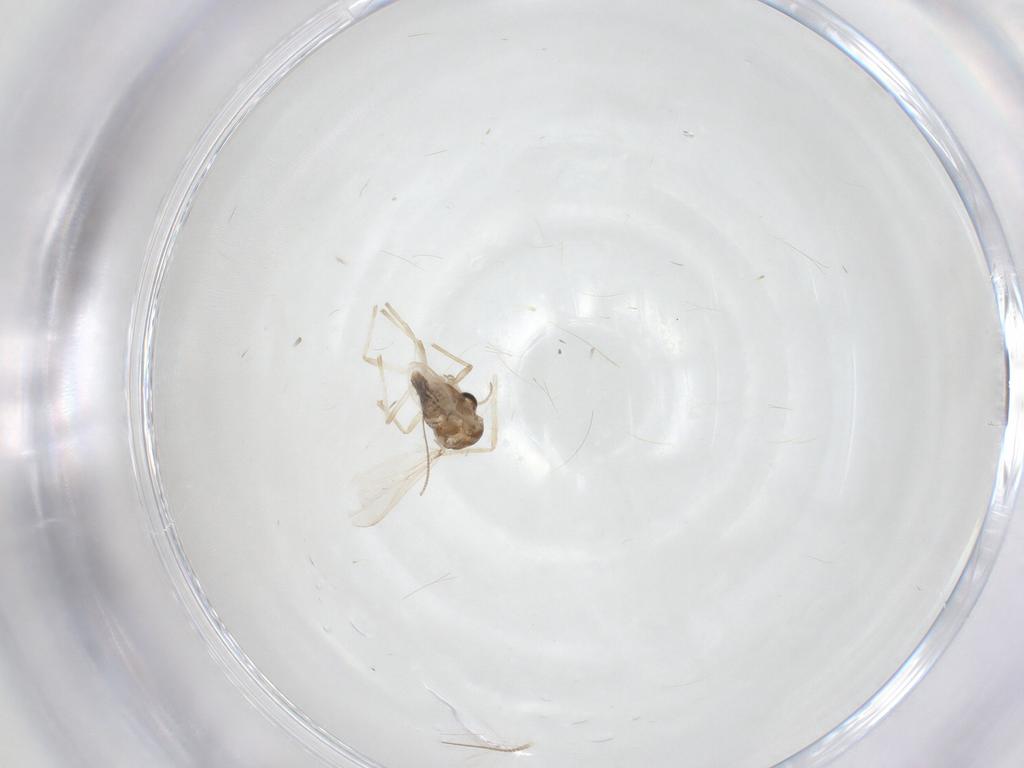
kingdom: Animalia
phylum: Arthropoda
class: Insecta
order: Diptera
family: Chironomidae
